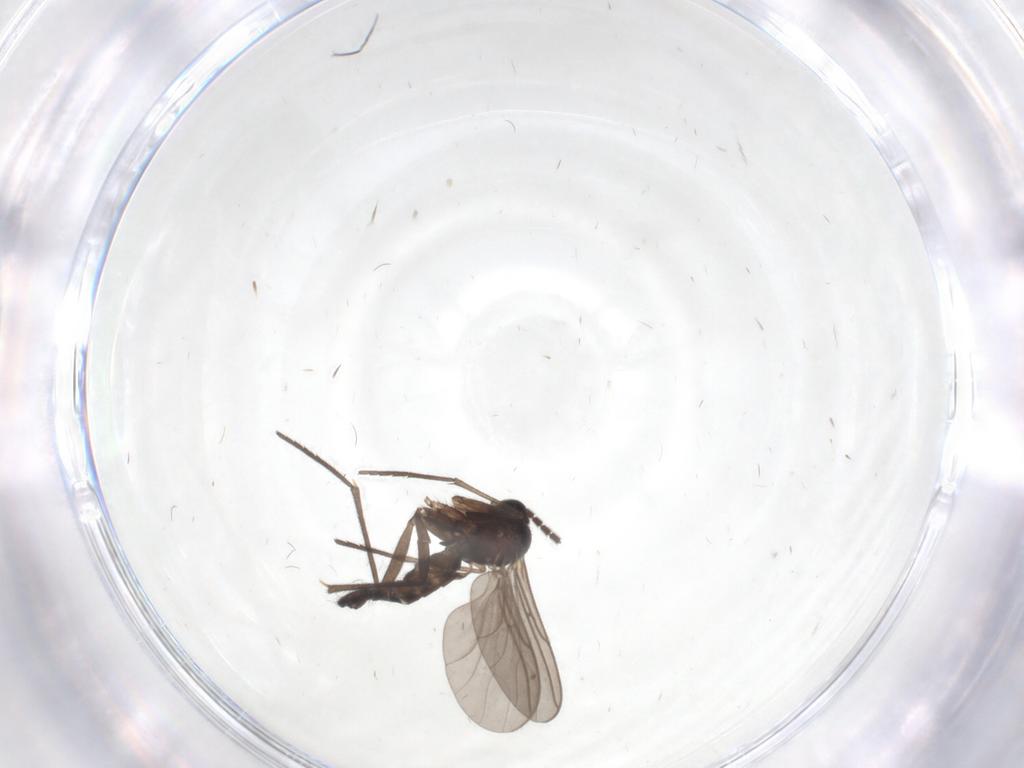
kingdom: Animalia
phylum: Arthropoda
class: Insecta
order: Diptera
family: Sciaridae
